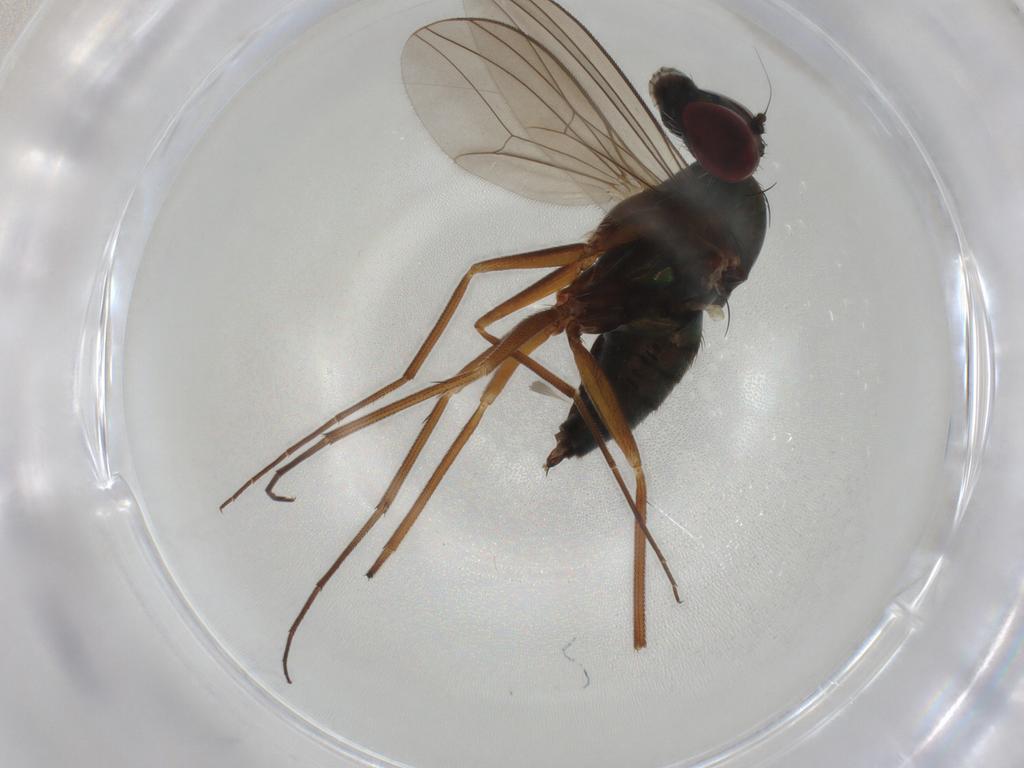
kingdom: Animalia
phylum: Arthropoda
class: Insecta
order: Diptera
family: Dolichopodidae
